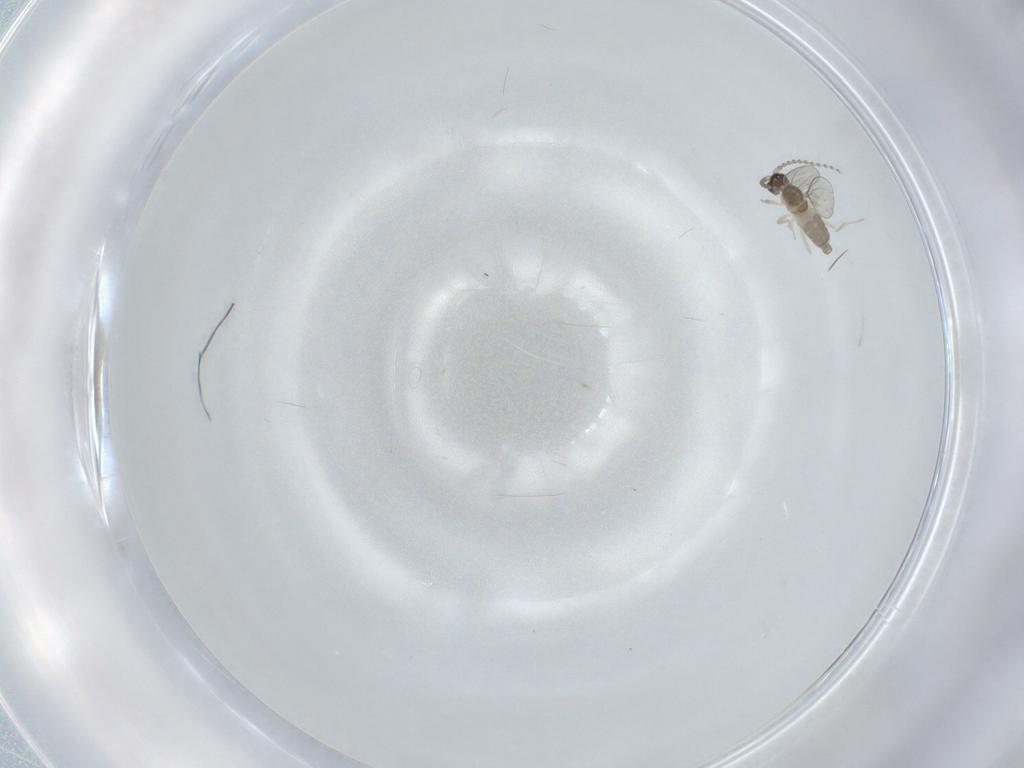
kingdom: Animalia
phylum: Arthropoda
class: Insecta
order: Diptera
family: Cecidomyiidae
